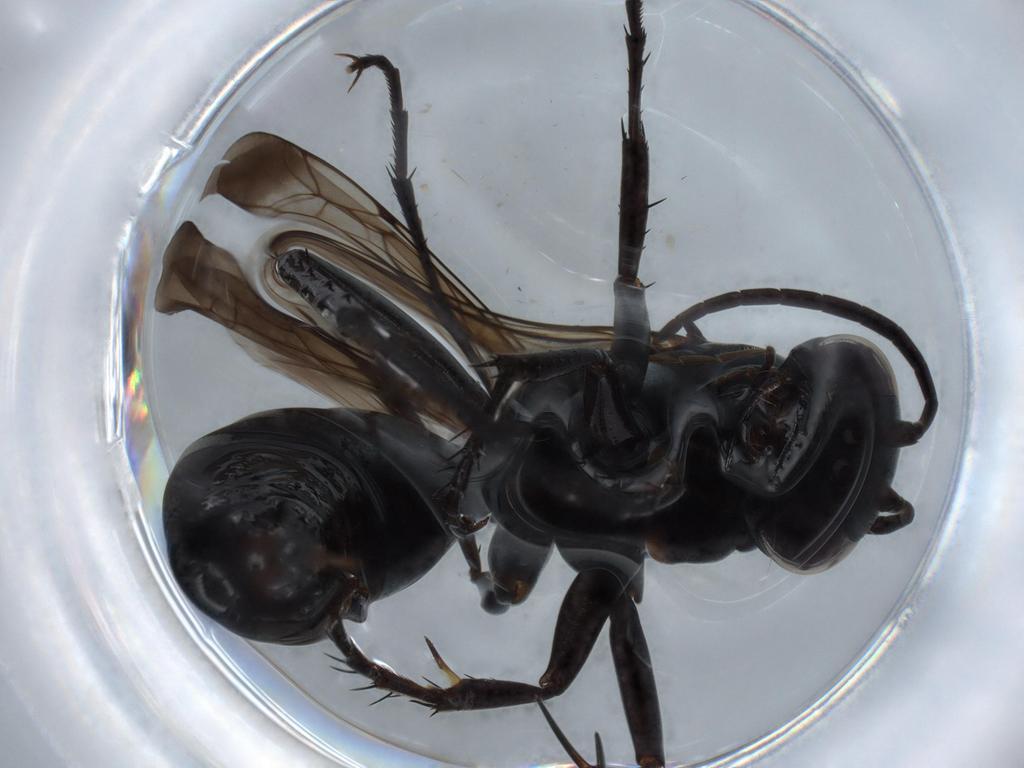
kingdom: Animalia
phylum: Arthropoda
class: Insecta
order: Hymenoptera
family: Pompilidae
